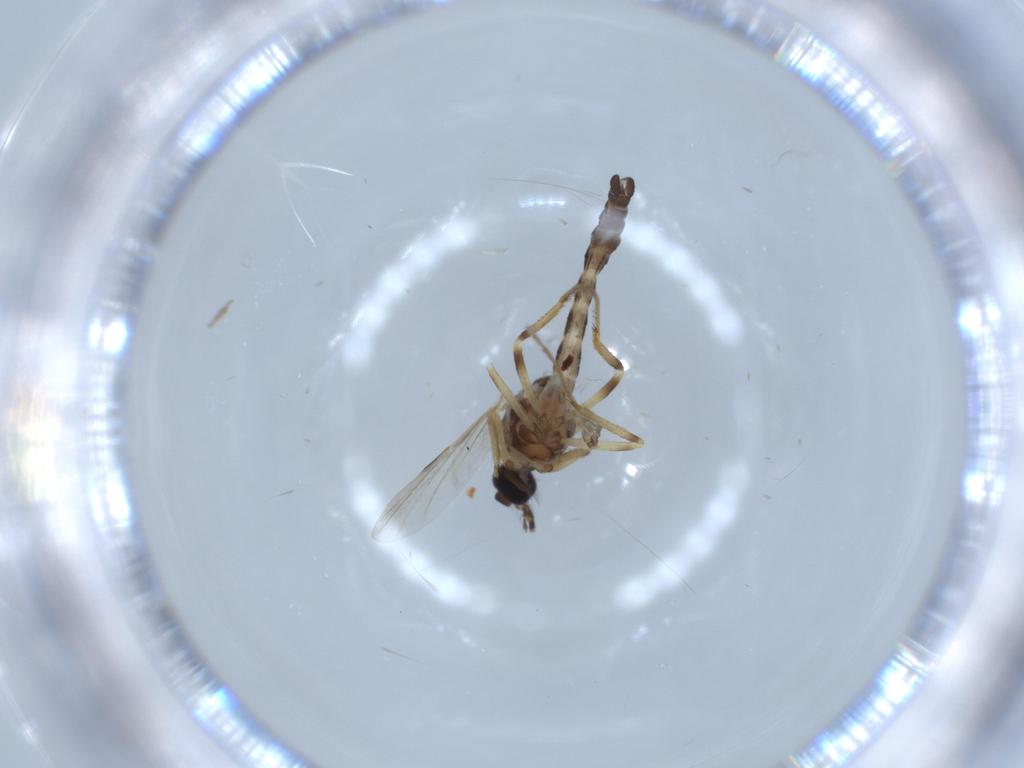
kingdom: Animalia
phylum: Arthropoda
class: Insecta
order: Diptera
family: Ceratopogonidae
